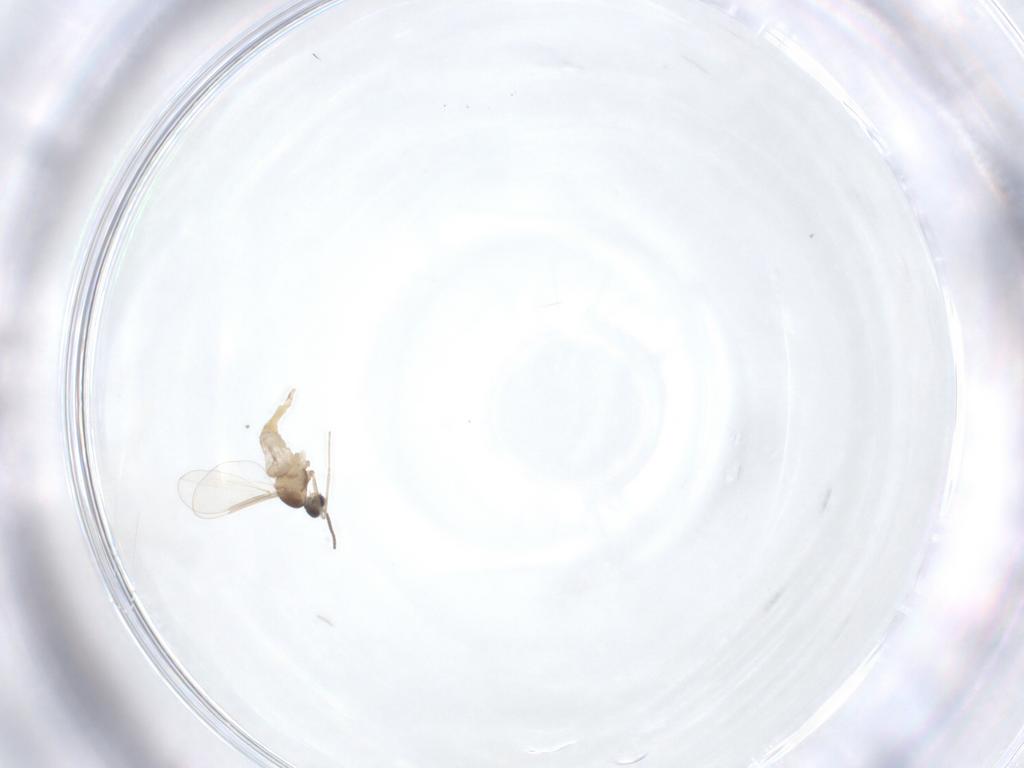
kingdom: Animalia
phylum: Arthropoda
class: Insecta
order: Diptera
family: Cecidomyiidae
